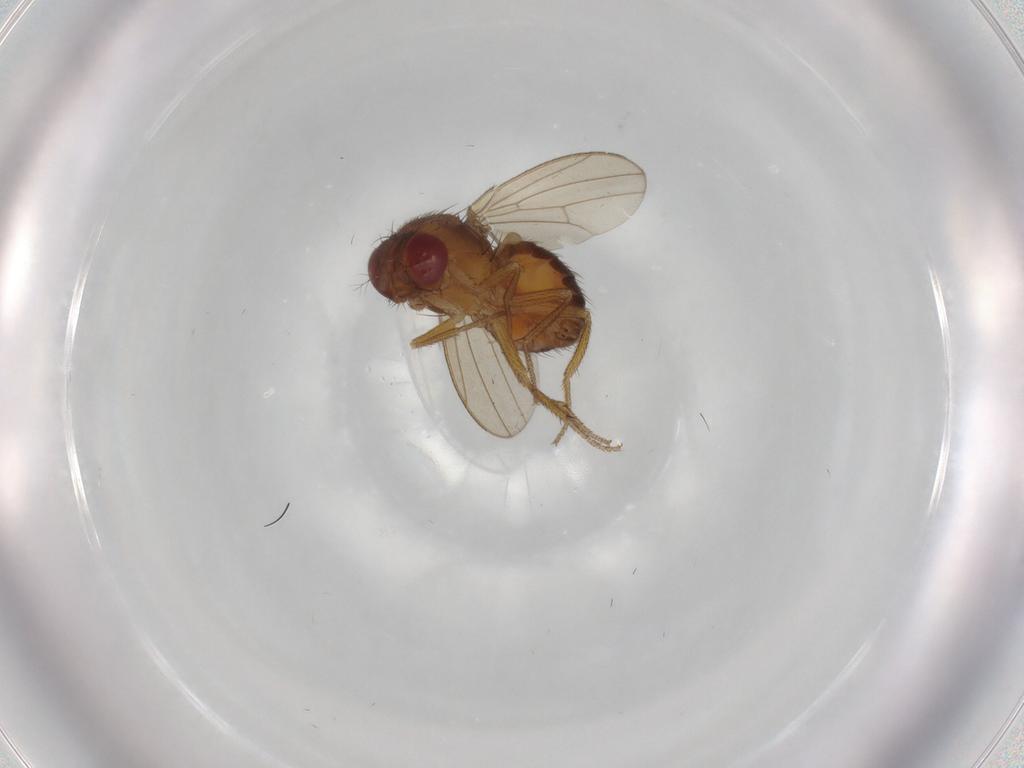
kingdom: Animalia
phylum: Arthropoda
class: Insecta
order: Diptera
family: Drosophilidae
